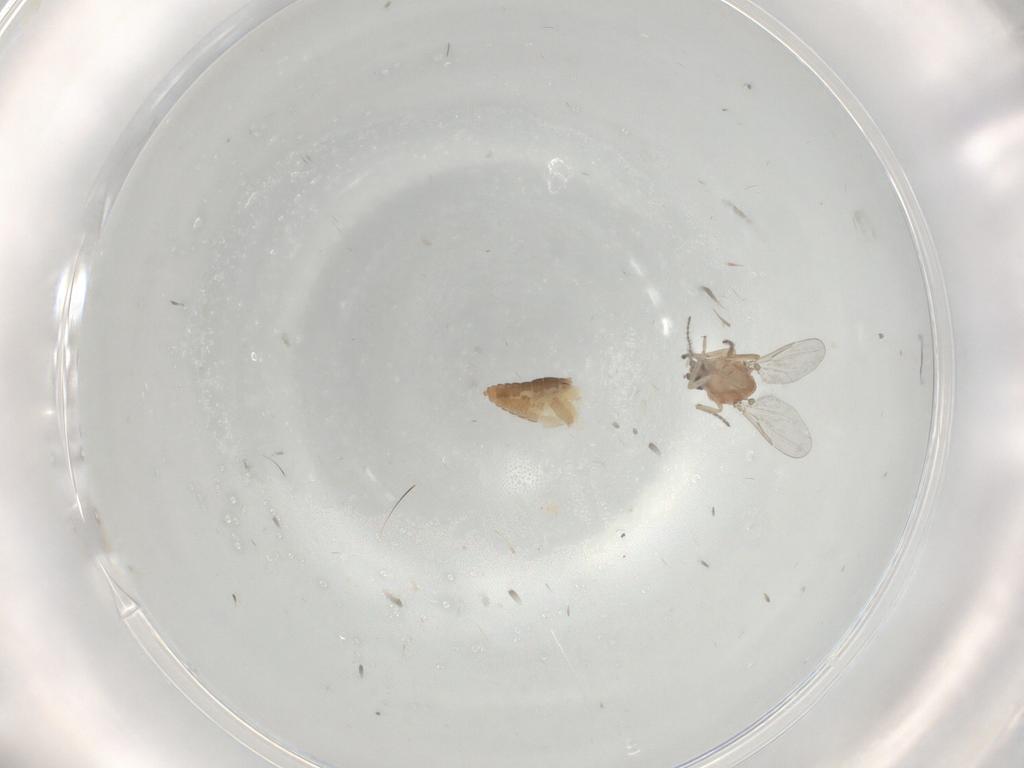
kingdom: Animalia
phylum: Arthropoda
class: Insecta
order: Diptera
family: Ceratopogonidae
